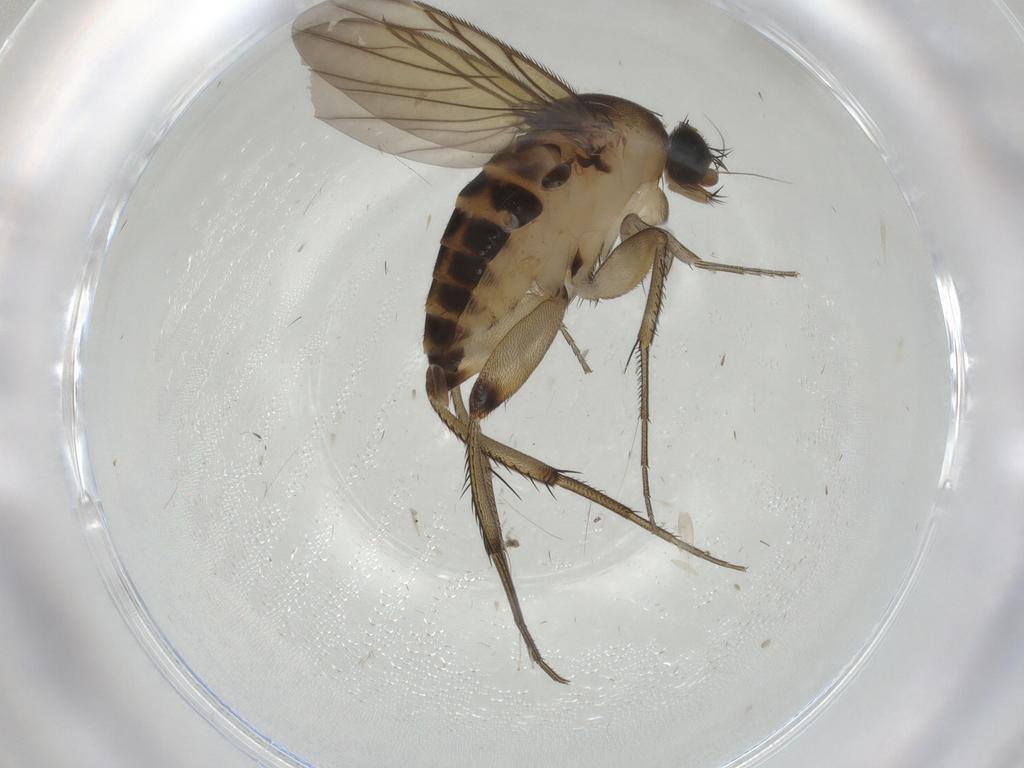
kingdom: Animalia
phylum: Arthropoda
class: Insecta
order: Diptera
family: Phoridae
